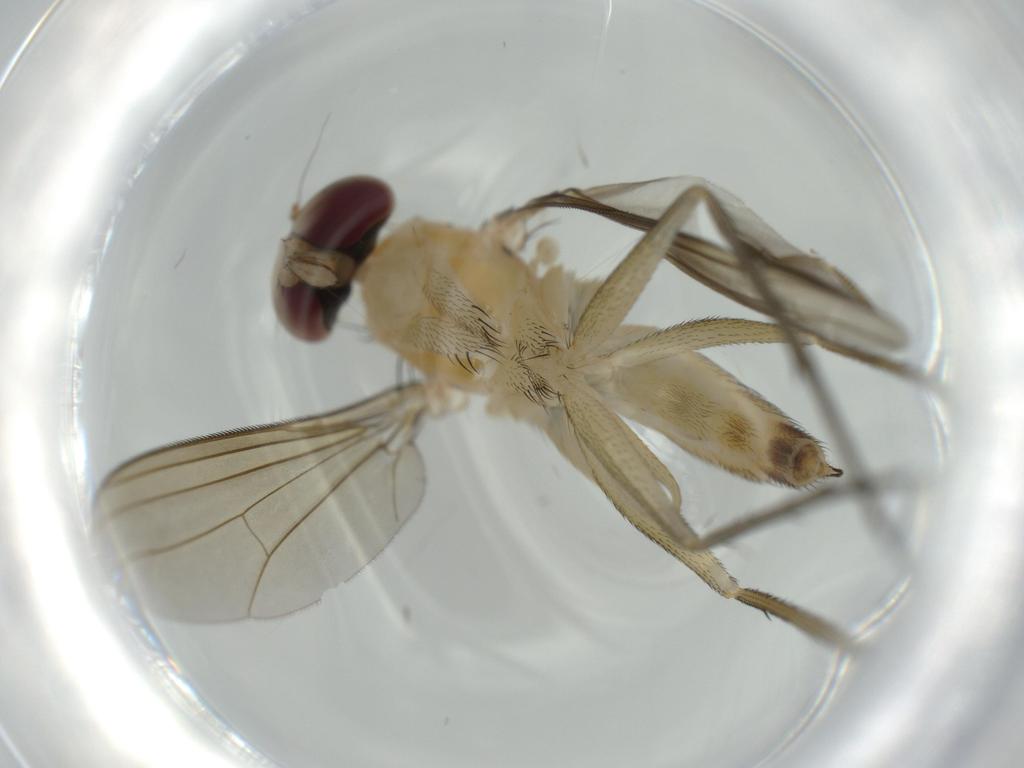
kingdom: Animalia
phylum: Arthropoda
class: Insecta
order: Diptera
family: Dolichopodidae
